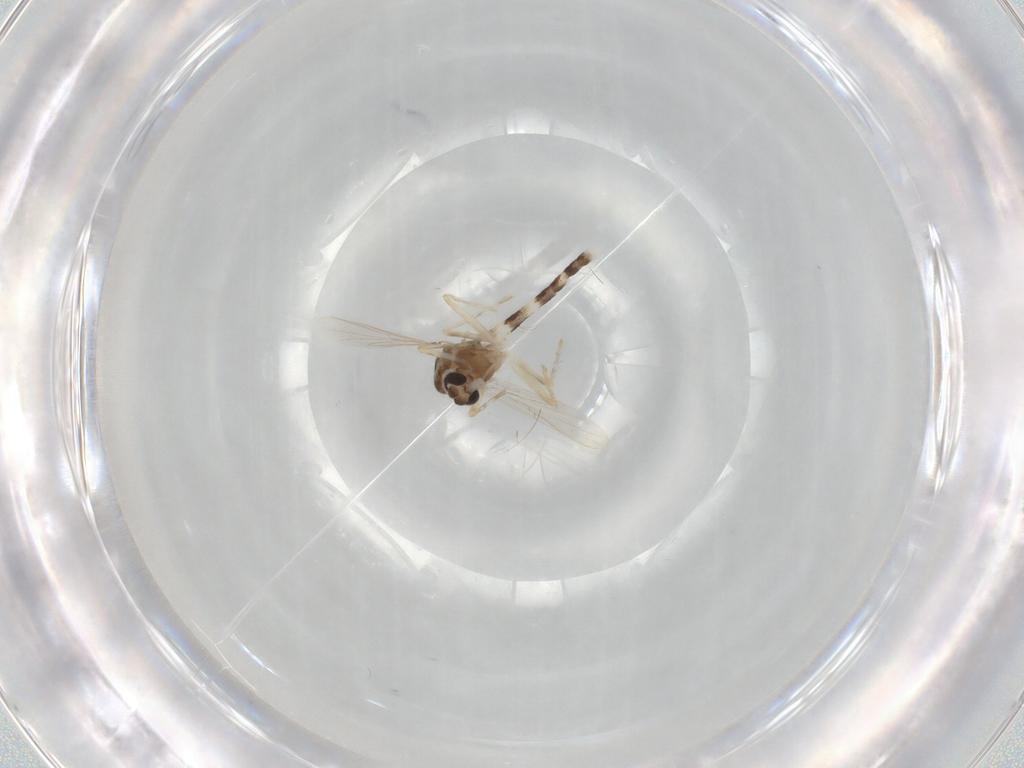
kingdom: Animalia
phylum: Arthropoda
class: Insecta
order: Diptera
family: Chironomidae
